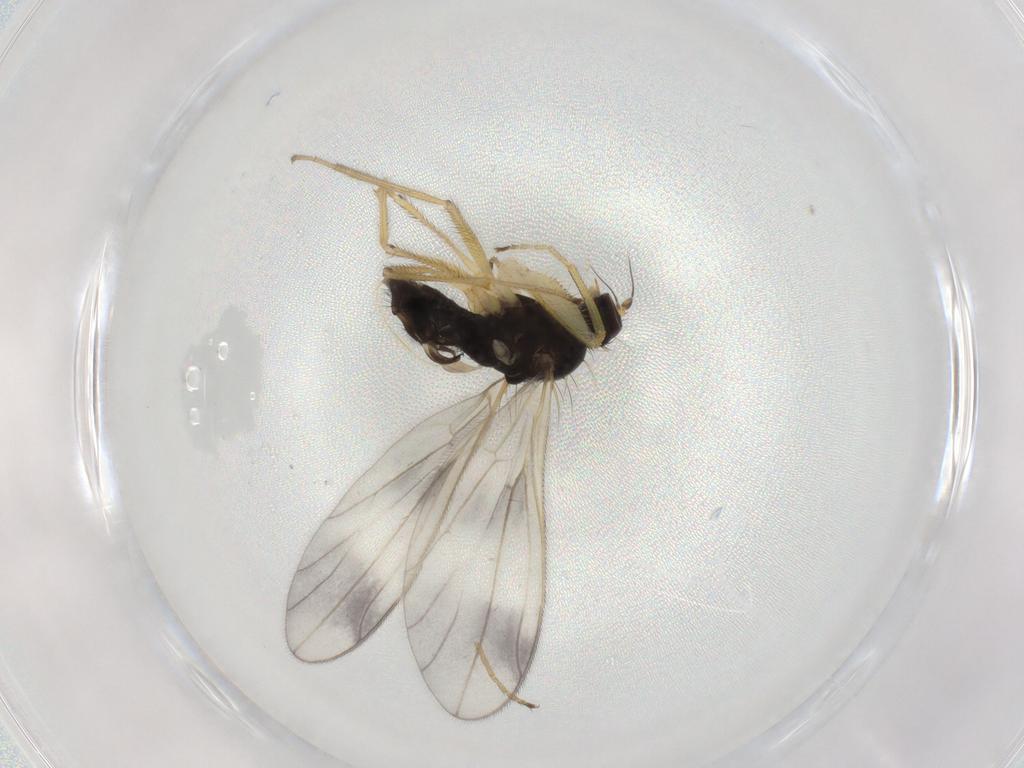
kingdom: Animalia
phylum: Arthropoda
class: Insecta
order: Diptera
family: Empididae
